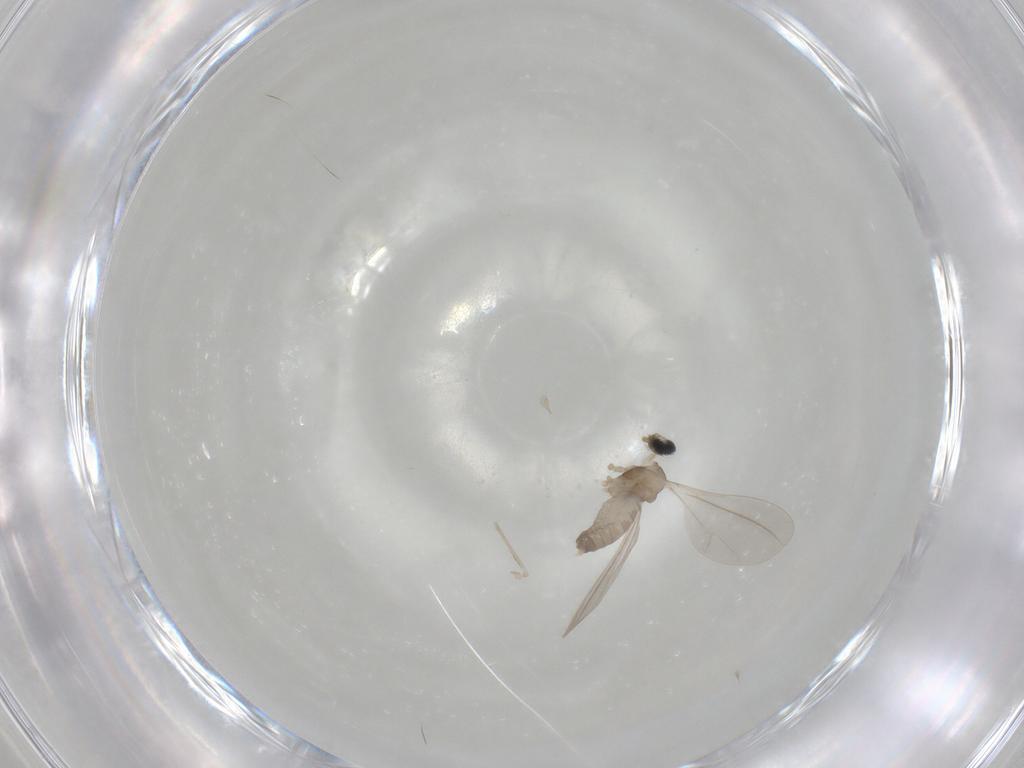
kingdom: Animalia
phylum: Arthropoda
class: Insecta
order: Diptera
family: Cecidomyiidae
